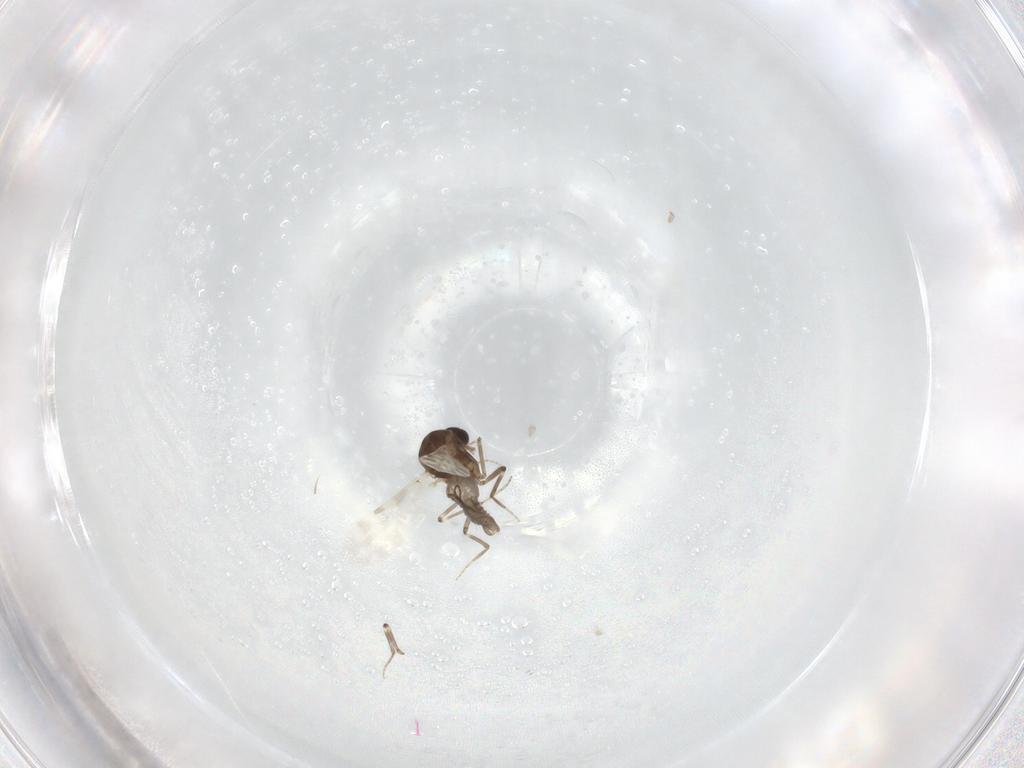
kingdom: Animalia
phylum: Arthropoda
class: Insecta
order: Diptera
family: Ceratopogonidae
